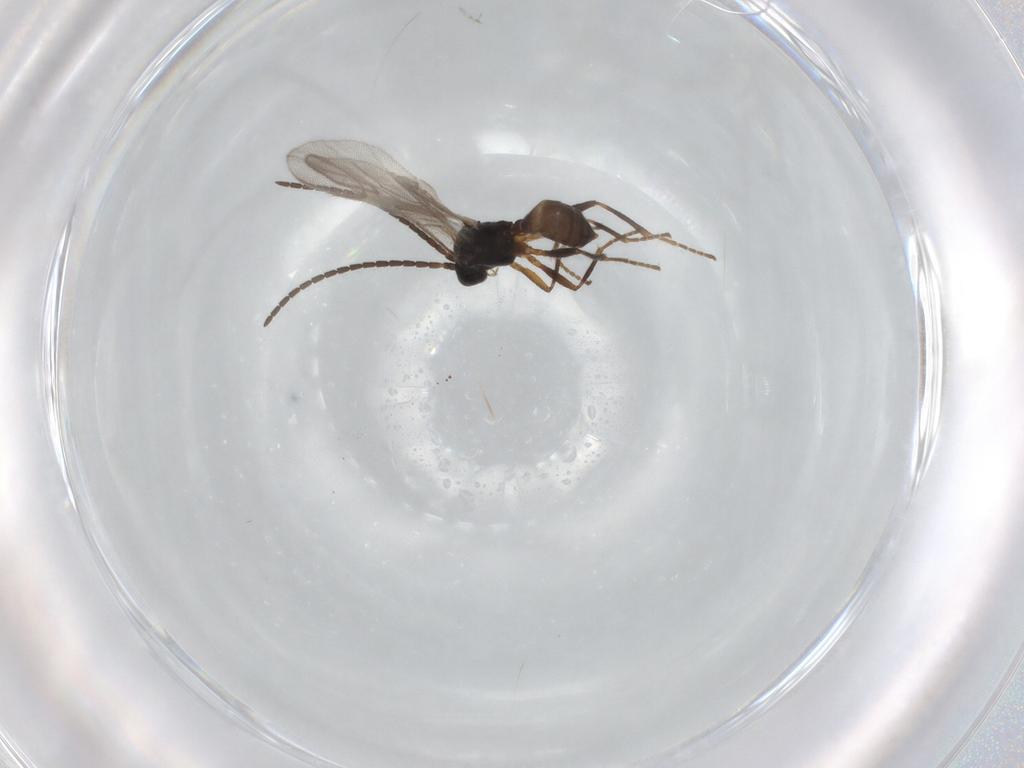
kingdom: Animalia
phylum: Arthropoda
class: Insecta
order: Hymenoptera
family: Braconidae
